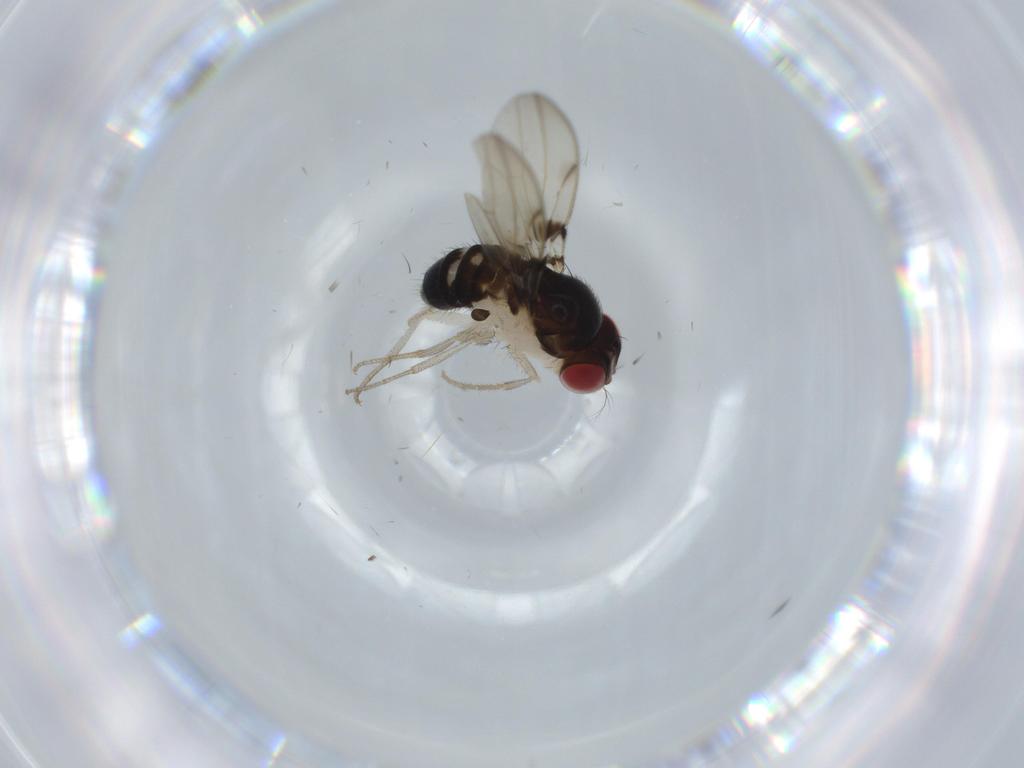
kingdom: Animalia
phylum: Arthropoda
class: Insecta
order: Diptera
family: Drosophilidae
